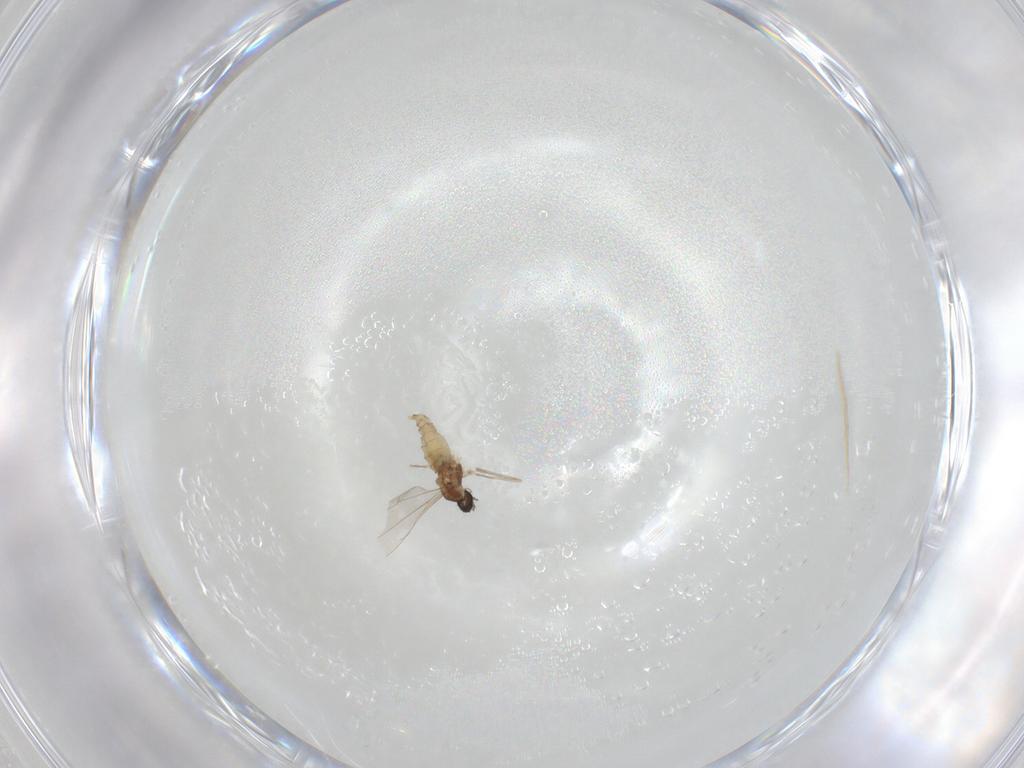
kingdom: Animalia
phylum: Arthropoda
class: Insecta
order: Diptera
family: Cecidomyiidae
